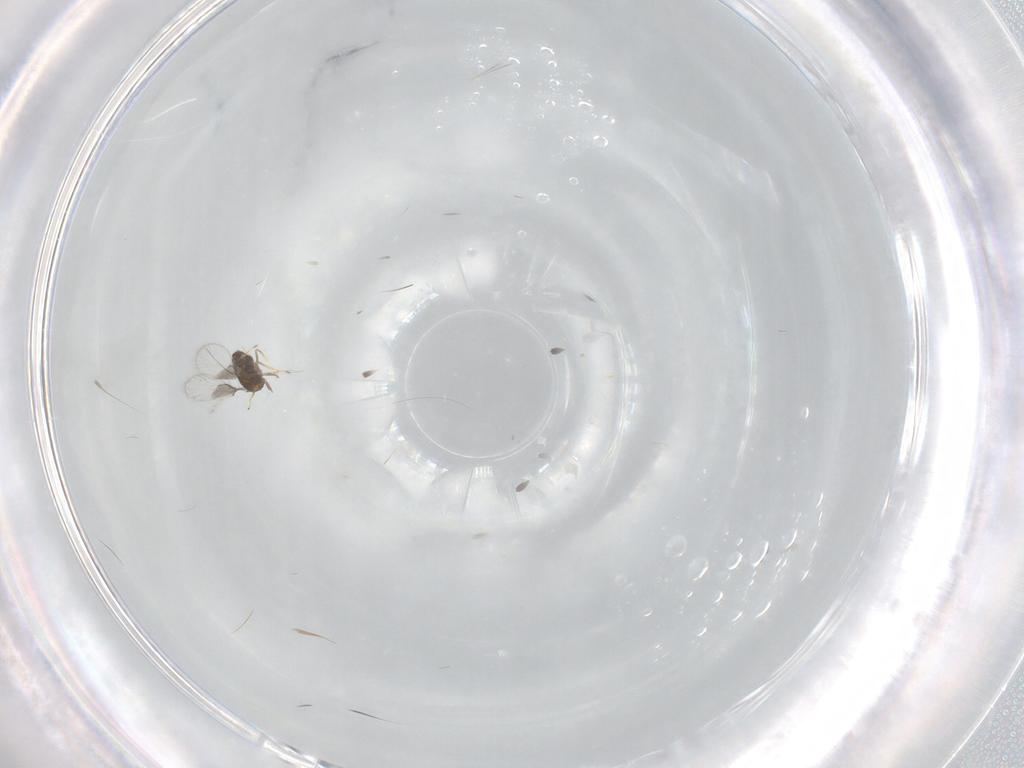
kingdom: Animalia
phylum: Arthropoda
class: Insecta
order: Hymenoptera
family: Trichogrammatidae
